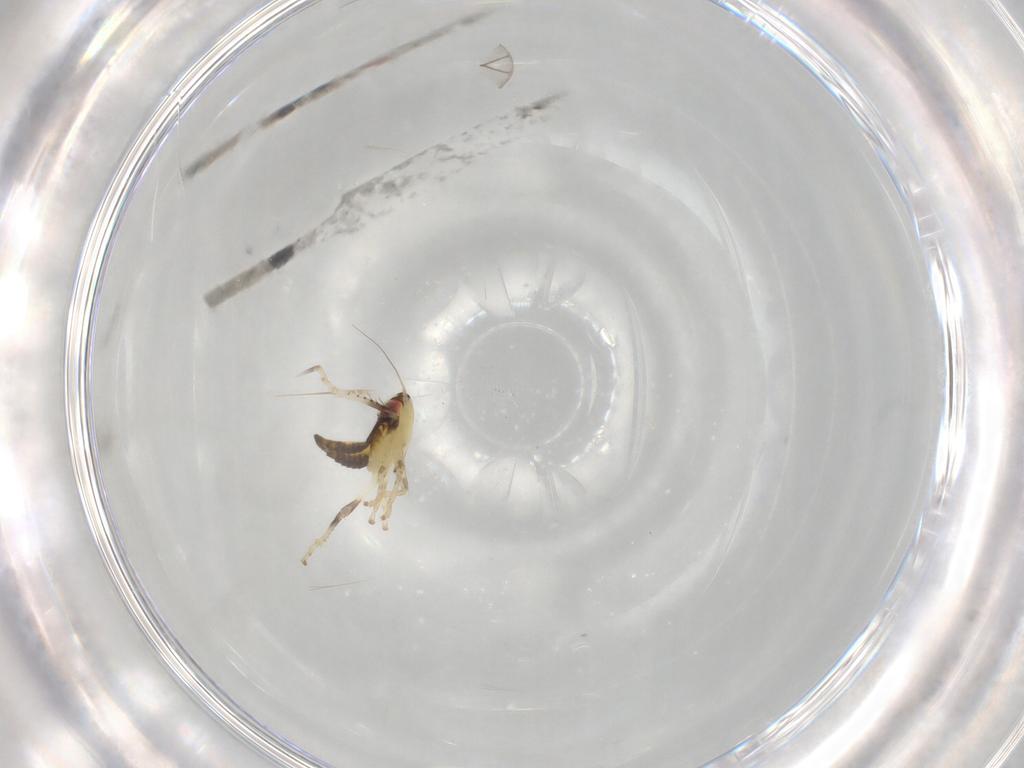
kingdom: Animalia
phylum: Arthropoda
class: Insecta
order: Hemiptera
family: Cicadellidae
